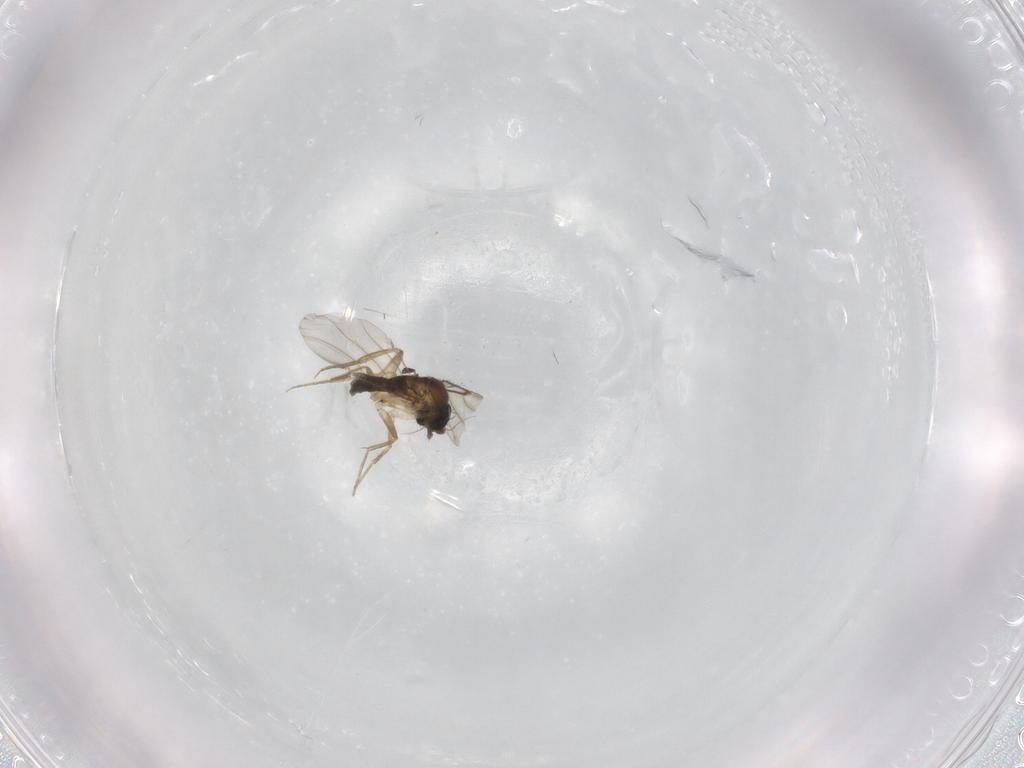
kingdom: Animalia
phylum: Arthropoda
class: Insecta
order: Diptera
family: Phoridae
